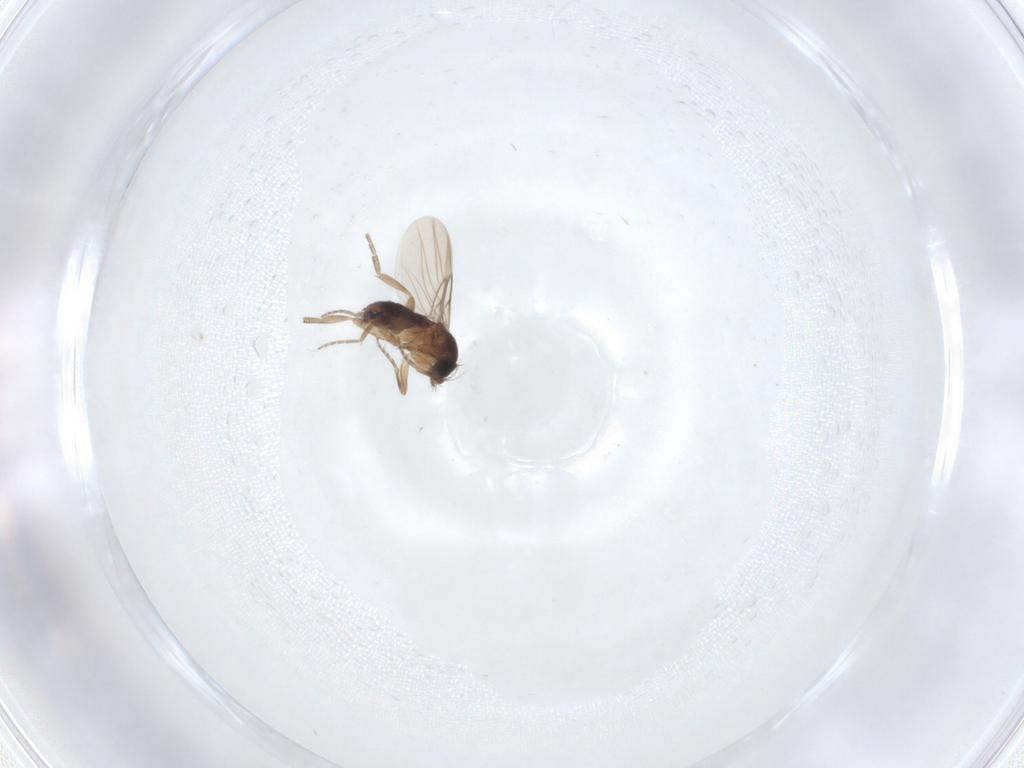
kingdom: Animalia
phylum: Arthropoda
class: Insecta
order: Diptera
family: Phoridae
